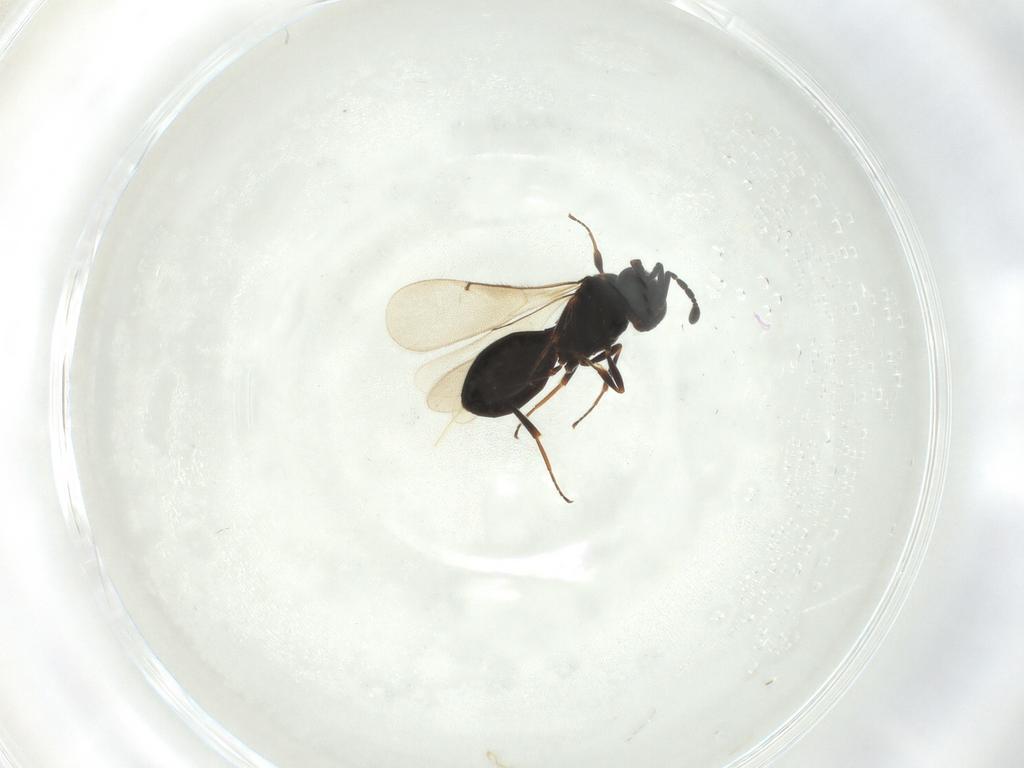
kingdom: Animalia
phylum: Arthropoda
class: Insecta
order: Hymenoptera
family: Scelionidae
